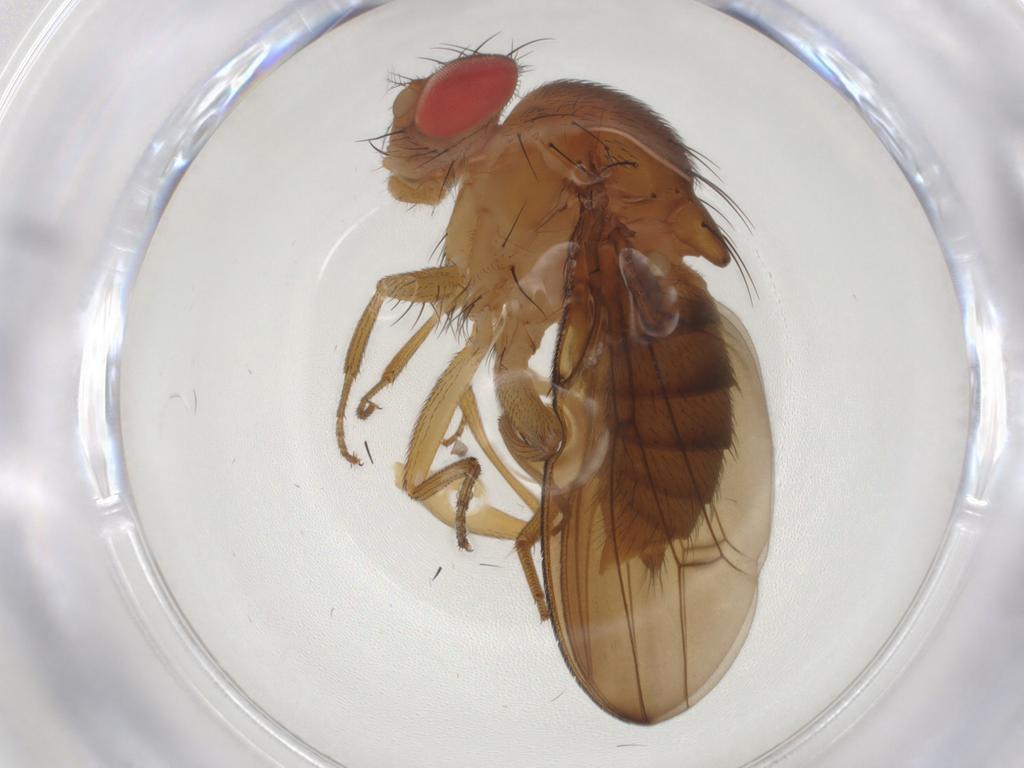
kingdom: Animalia
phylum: Arthropoda
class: Insecta
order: Diptera
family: Drosophilidae
